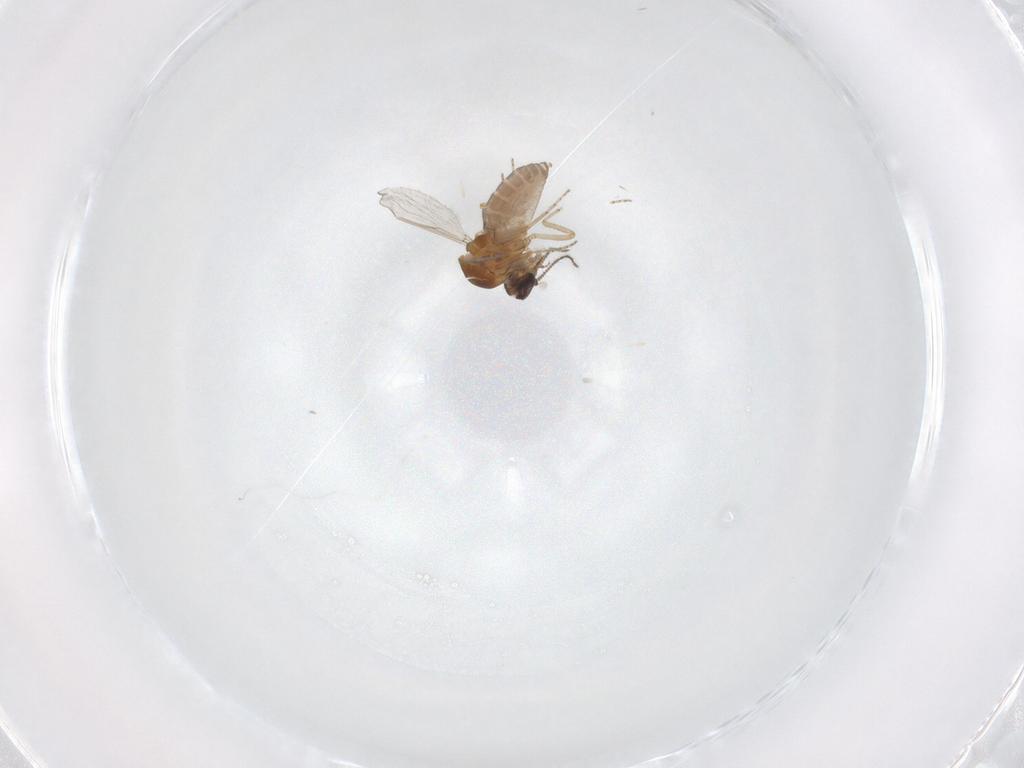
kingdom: Animalia
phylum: Arthropoda
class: Insecta
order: Diptera
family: Ceratopogonidae
